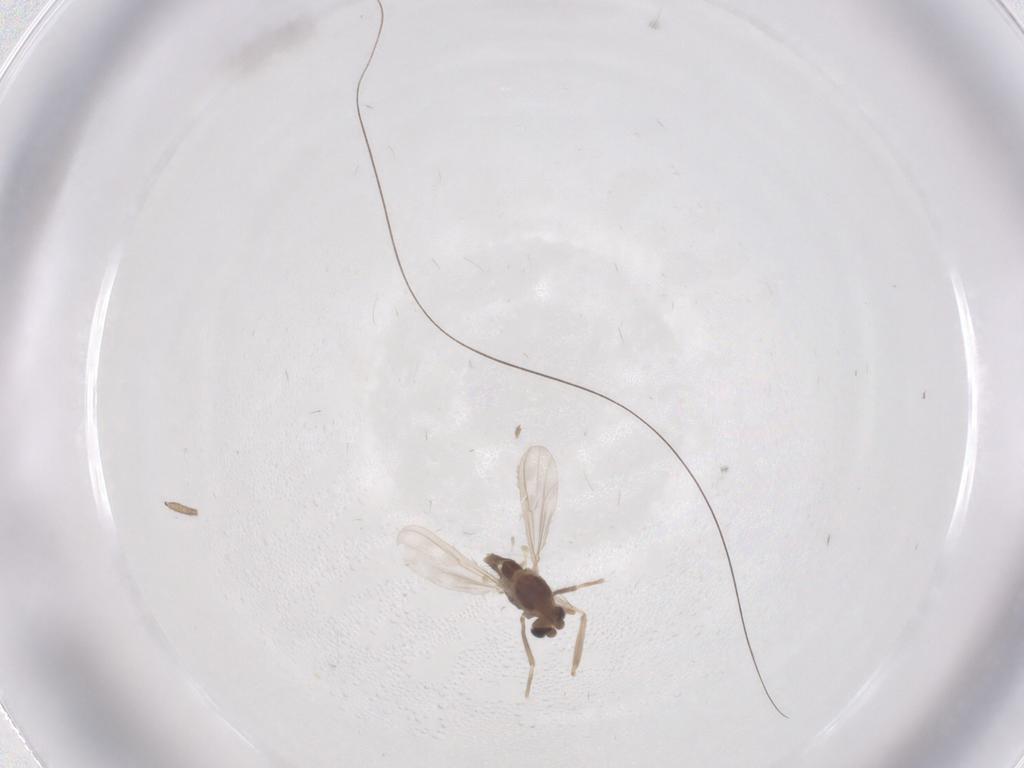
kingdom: Animalia
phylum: Arthropoda
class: Insecta
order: Diptera
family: Chironomidae
